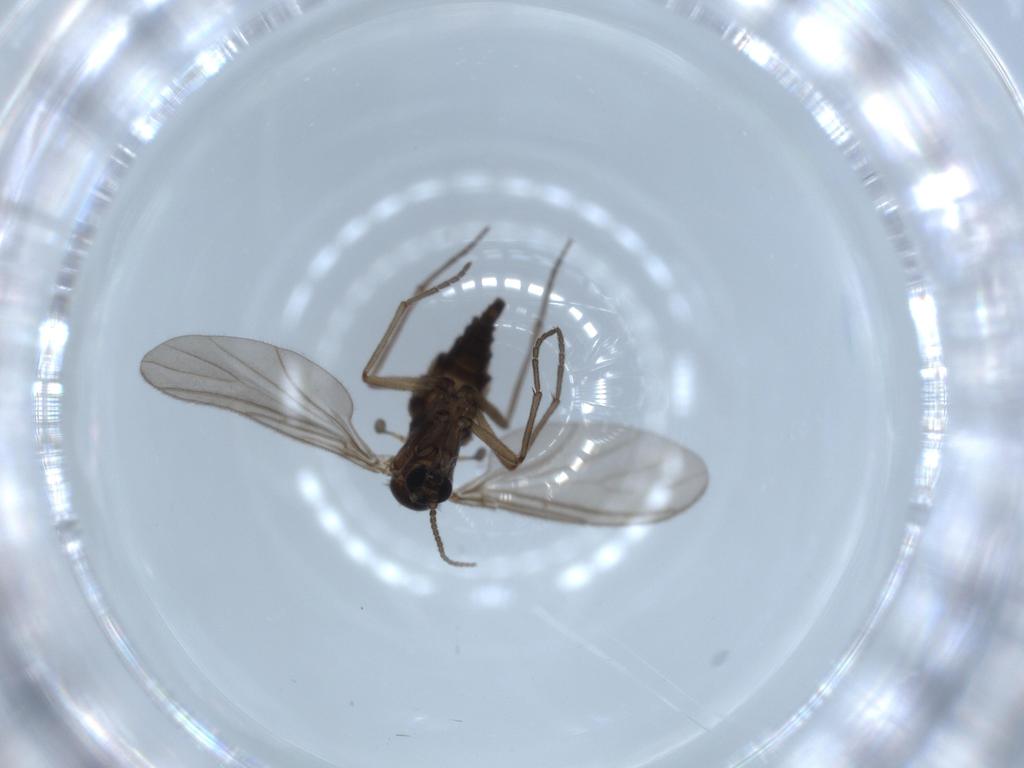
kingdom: Animalia
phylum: Arthropoda
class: Insecta
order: Diptera
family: Sciaridae
